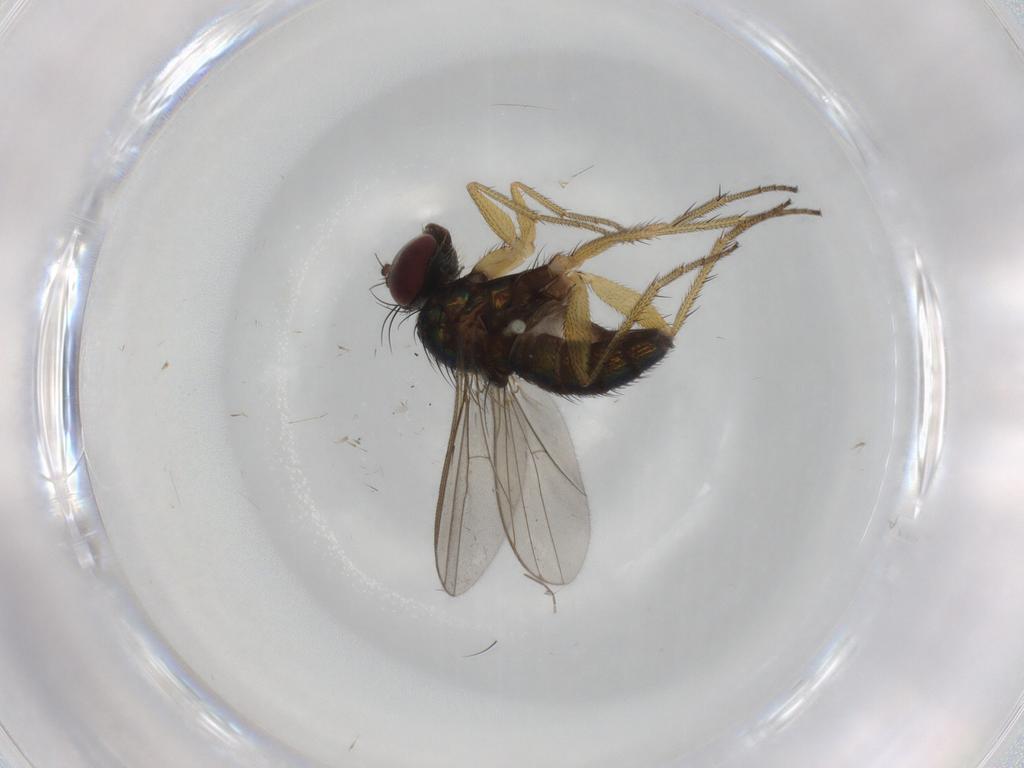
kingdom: Animalia
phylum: Arthropoda
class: Insecta
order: Diptera
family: Dolichopodidae
